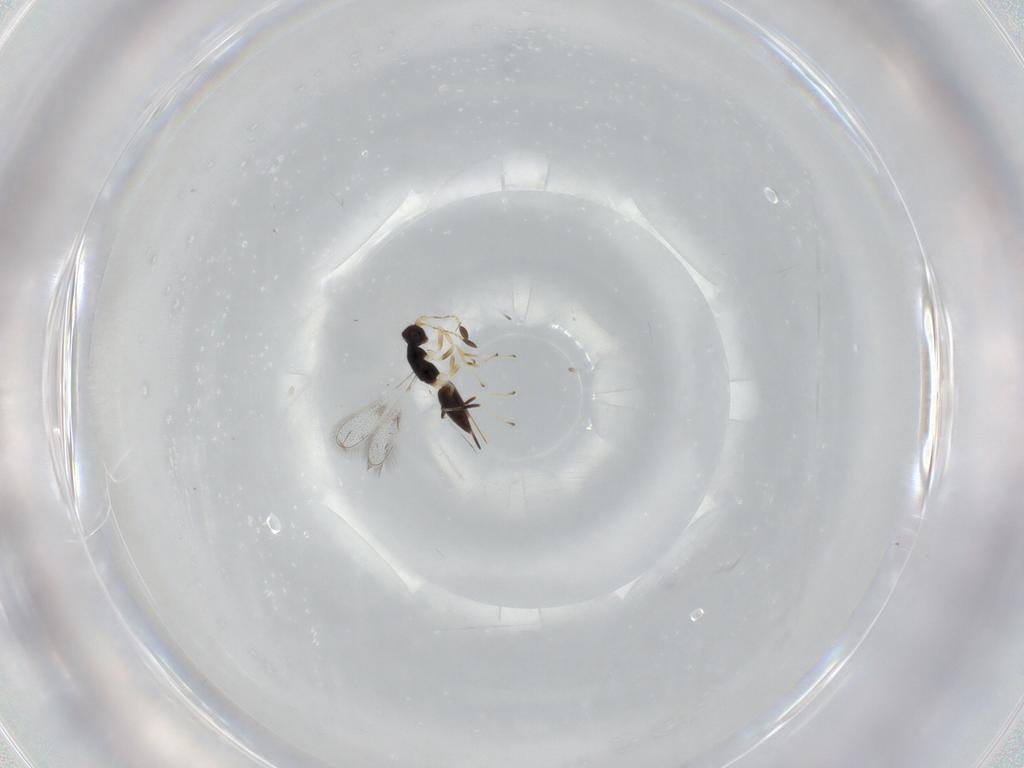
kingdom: Animalia
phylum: Arthropoda
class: Insecta
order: Hymenoptera
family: Mymaridae
